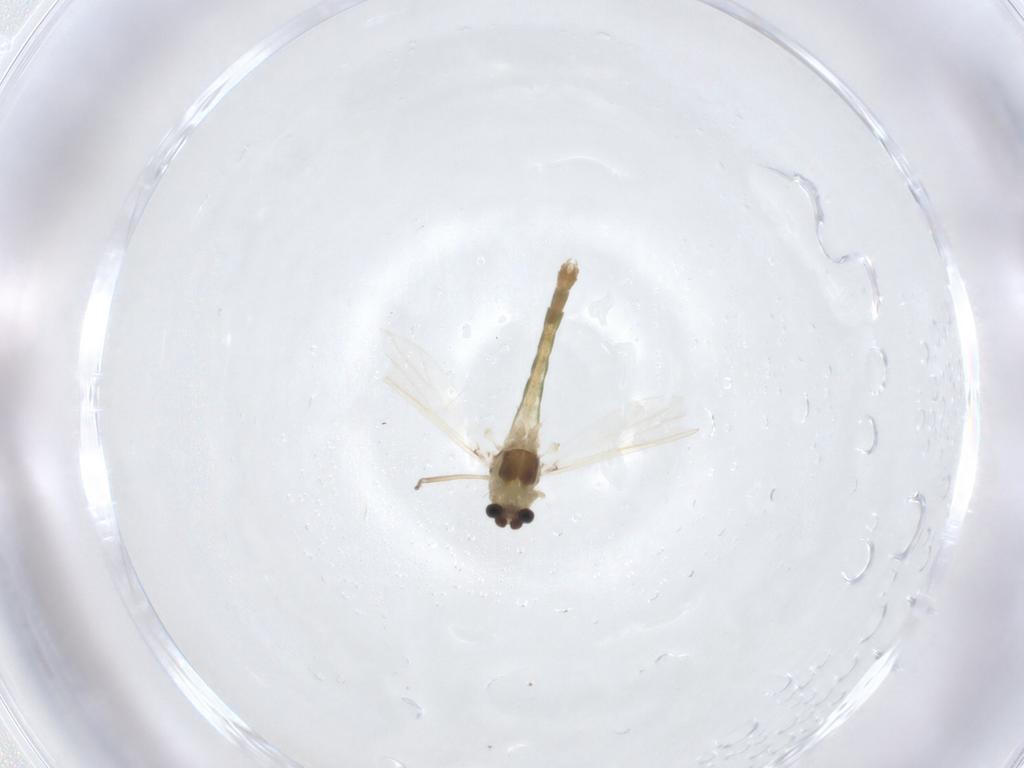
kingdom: Animalia
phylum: Arthropoda
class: Insecta
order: Diptera
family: Chironomidae
